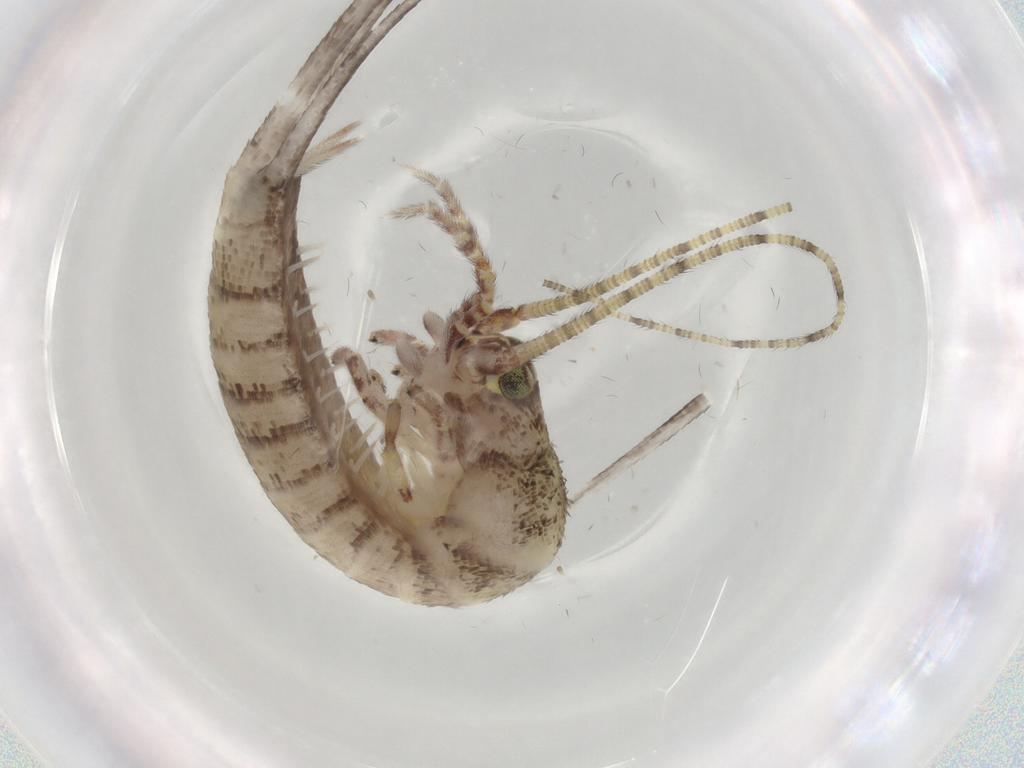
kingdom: Animalia
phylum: Arthropoda
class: Insecta
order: Archaeognatha
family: Machilidae
